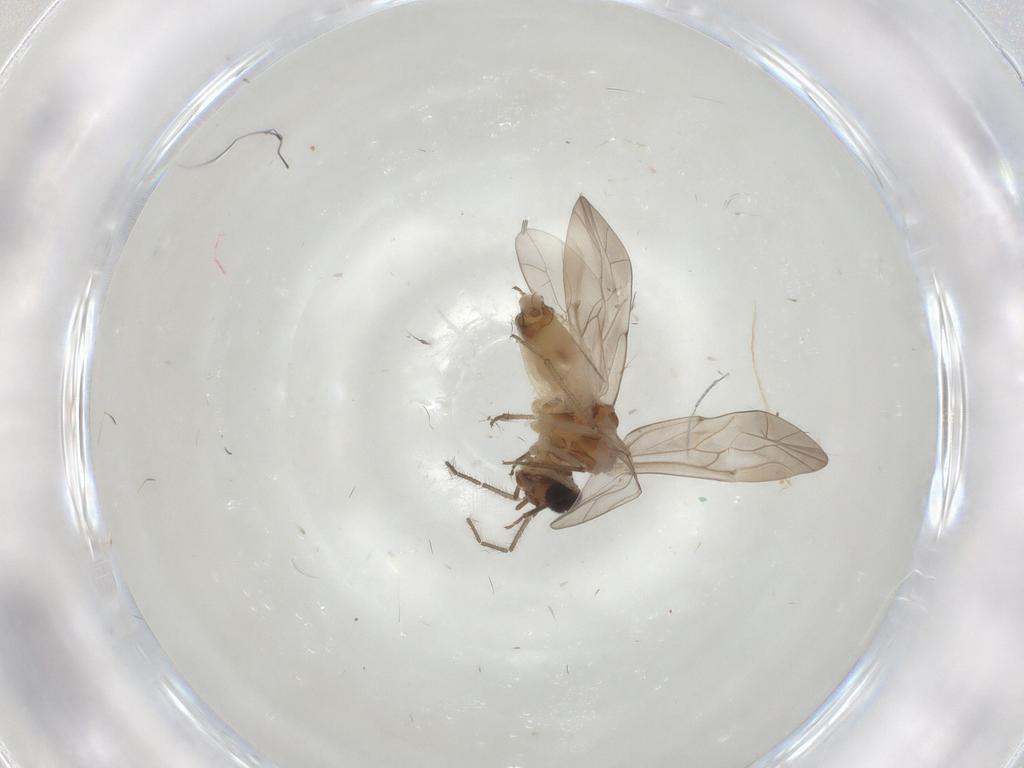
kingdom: Animalia
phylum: Arthropoda
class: Insecta
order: Psocodea
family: Peripsocidae
